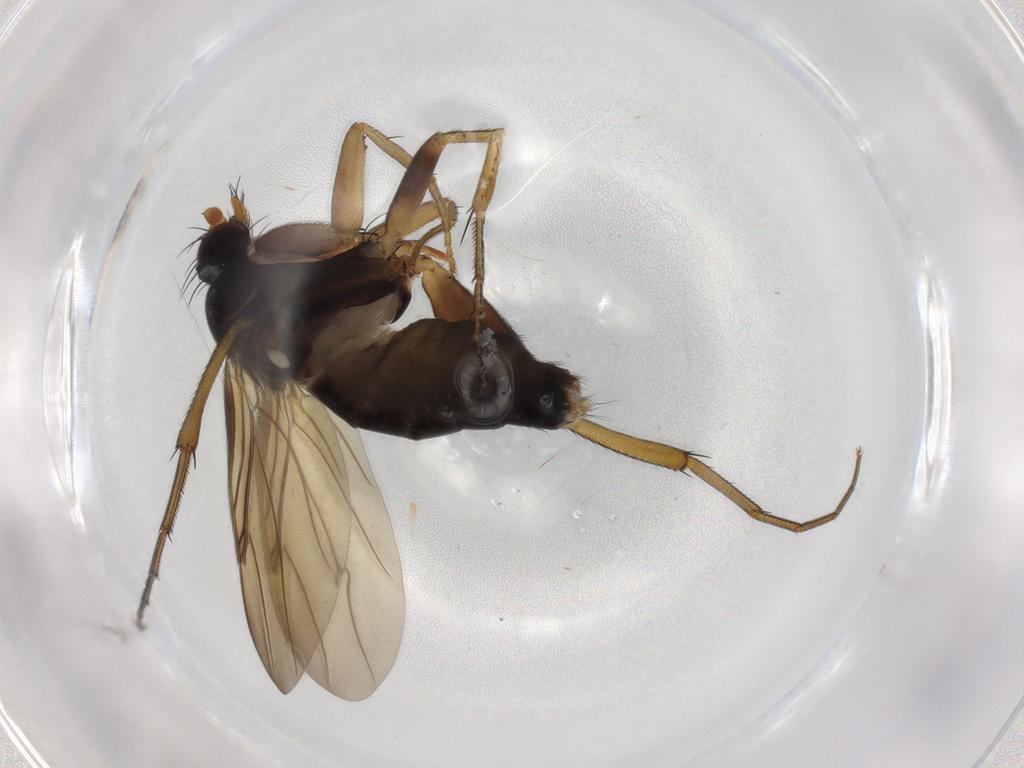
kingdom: Animalia
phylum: Arthropoda
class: Insecta
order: Diptera
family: Phoridae
